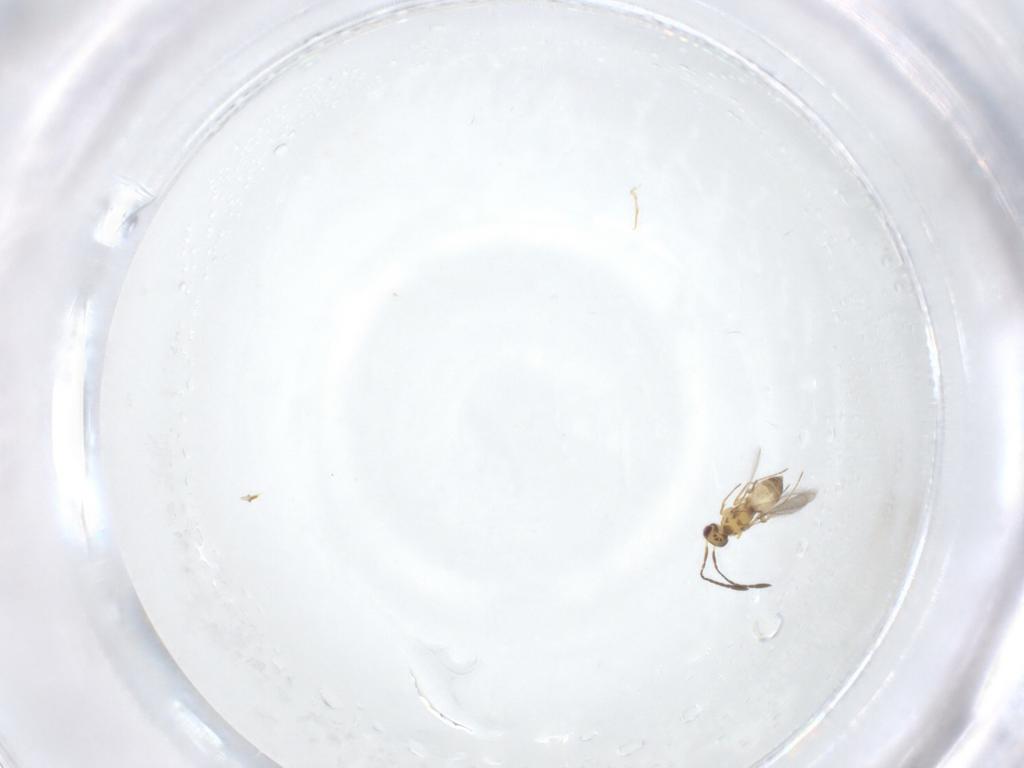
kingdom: Animalia
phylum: Arthropoda
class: Insecta
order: Hymenoptera
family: Mymaridae
